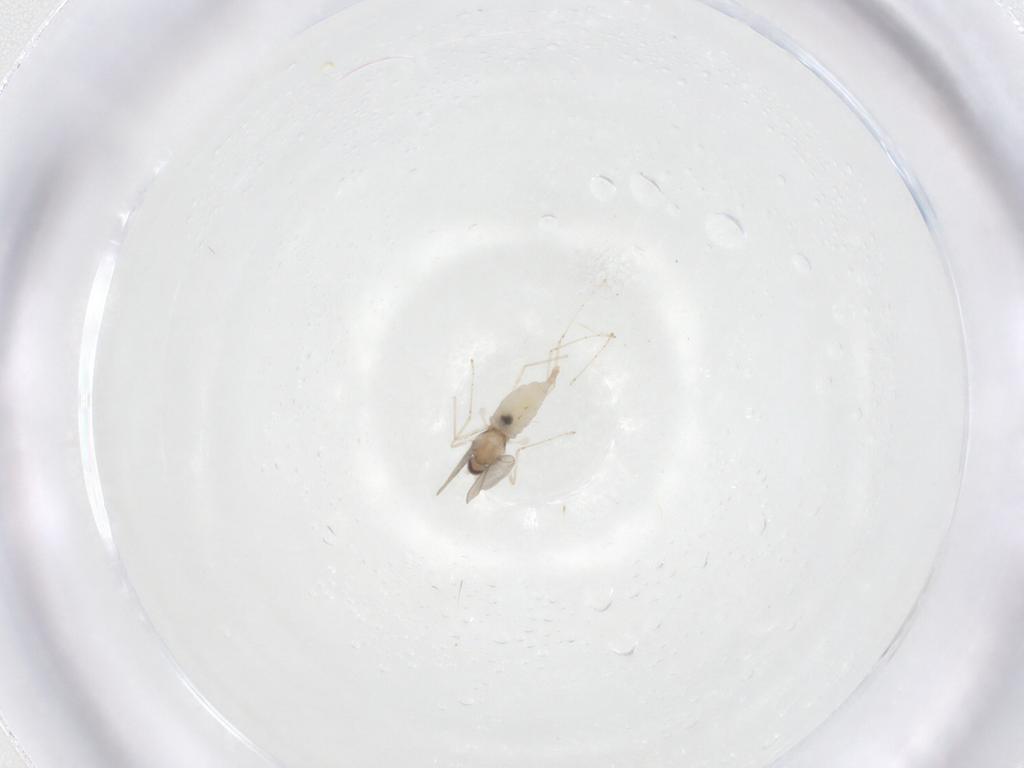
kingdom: Animalia
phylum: Arthropoda
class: Insecta
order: Diptera
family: Cecidomyiidae
